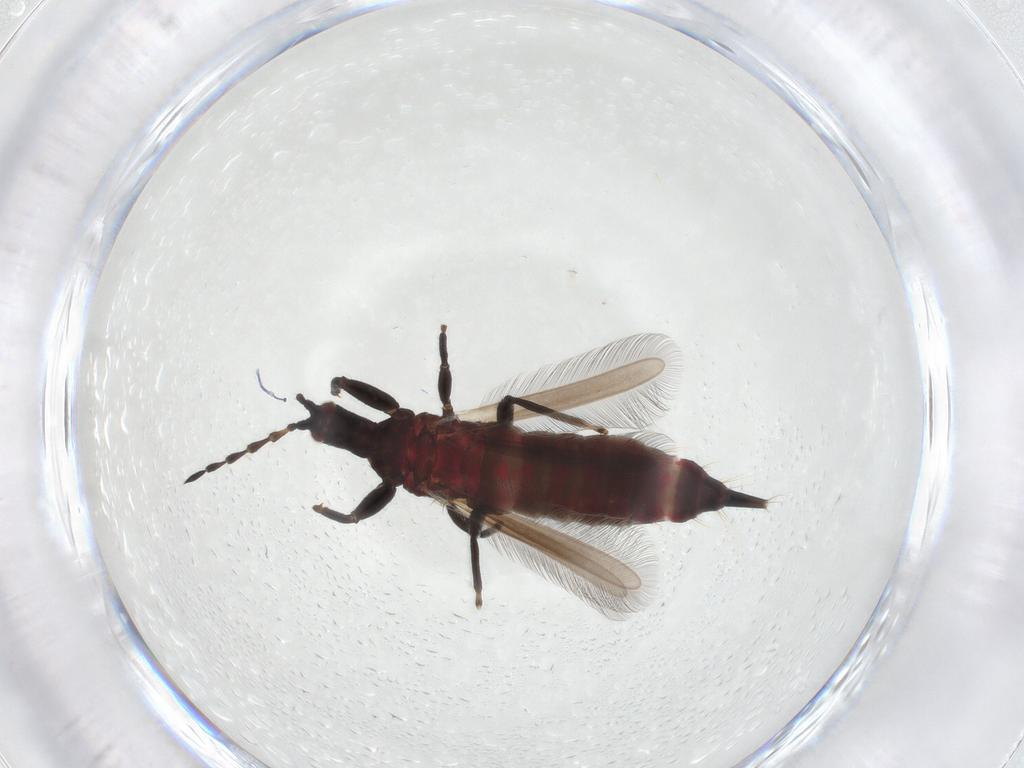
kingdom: Animalia
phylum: Arthropoda
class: Insecta
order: Thysanoptera
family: Phlaeothripidae
